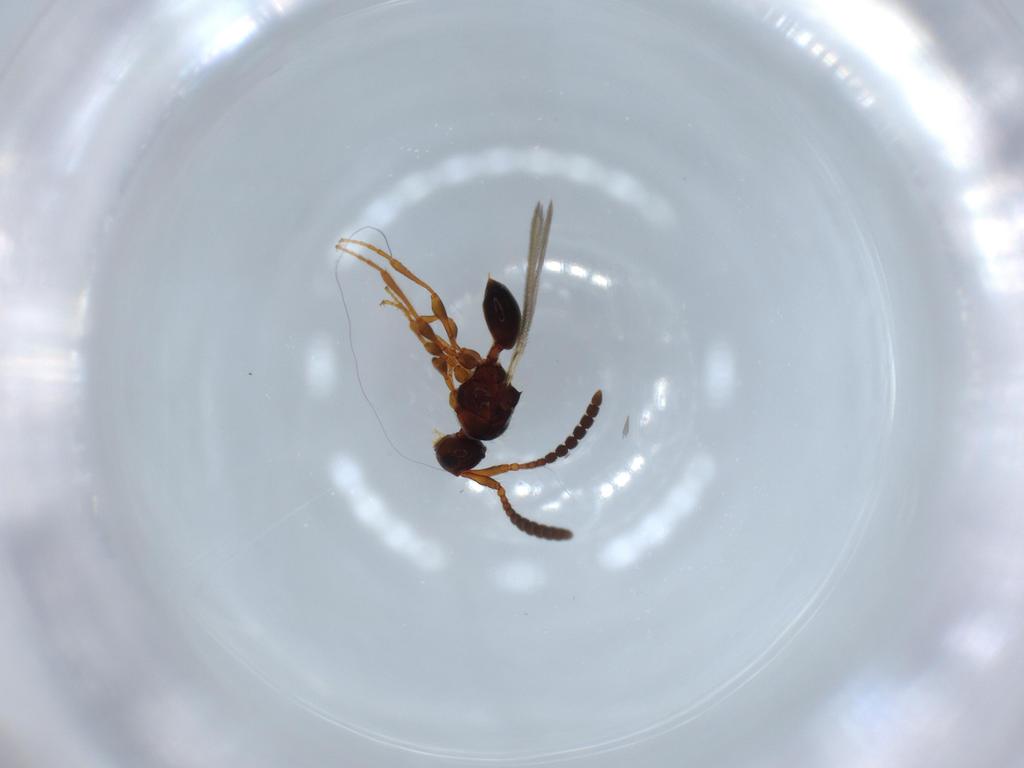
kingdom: Animalia
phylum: Arthropoda
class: Insecta
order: Hymenoptera
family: Diapriidae
